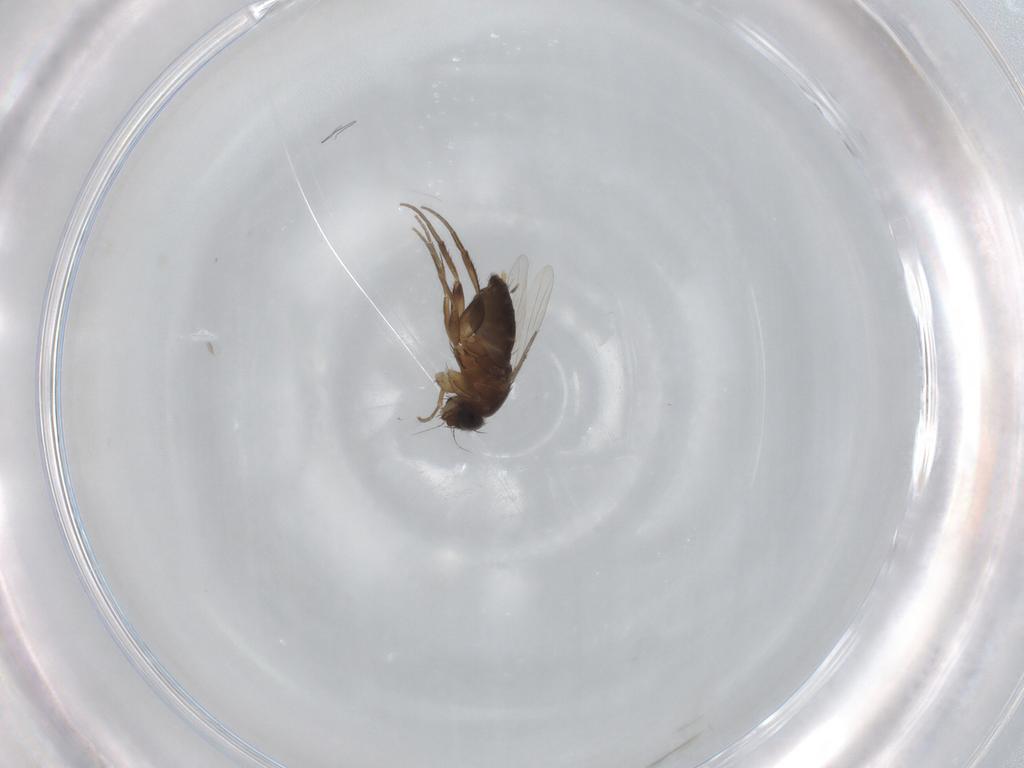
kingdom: Animalia
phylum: Arthropoda
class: Insecta
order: Diptera
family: Phoridae
